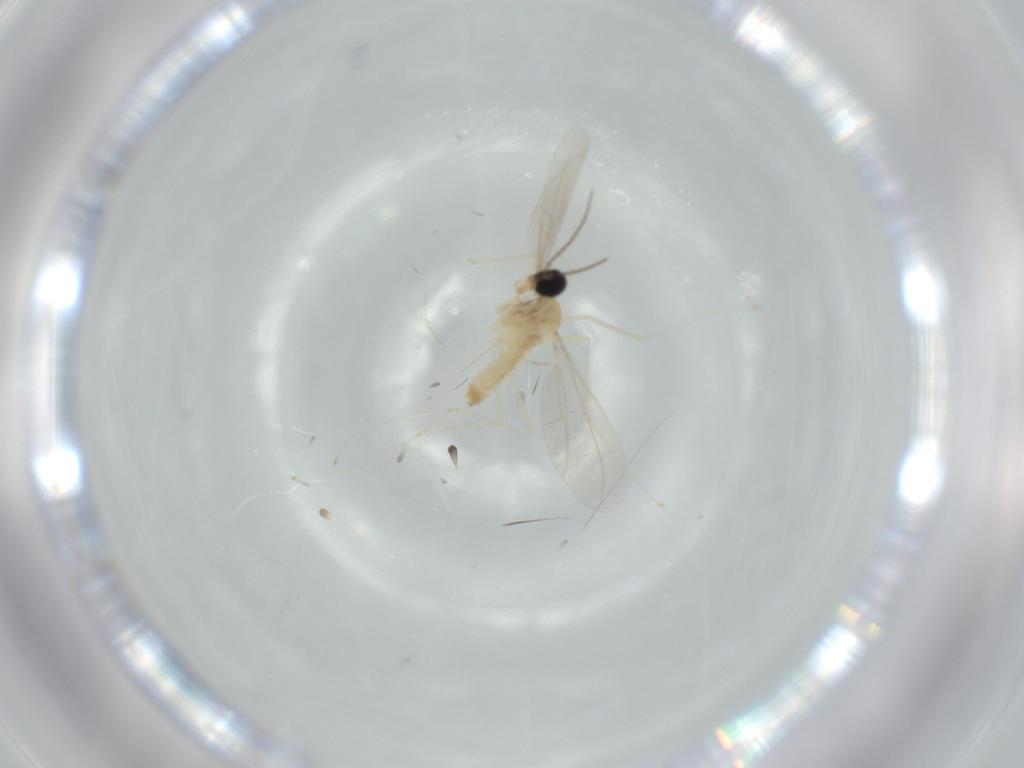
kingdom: Animalia
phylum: Arthropoda
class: Insecta
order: Diptera
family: Cecidomyiidae
